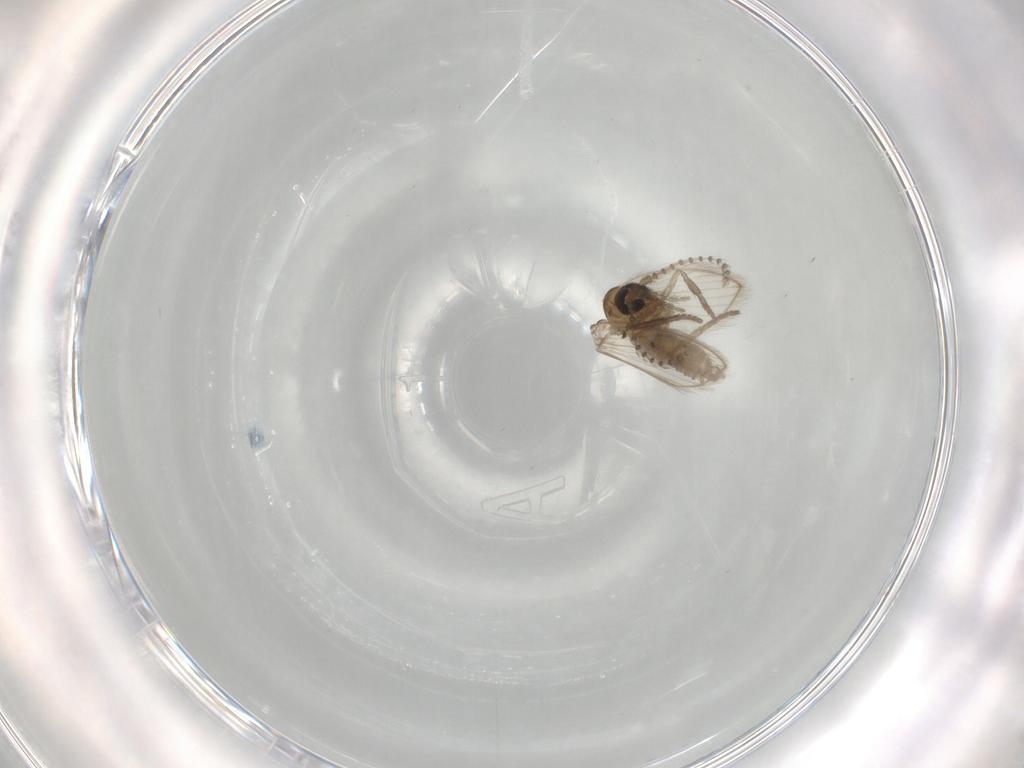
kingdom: Animalia
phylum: Arthropoda
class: Insecta
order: Diptera
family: Psychodidae
